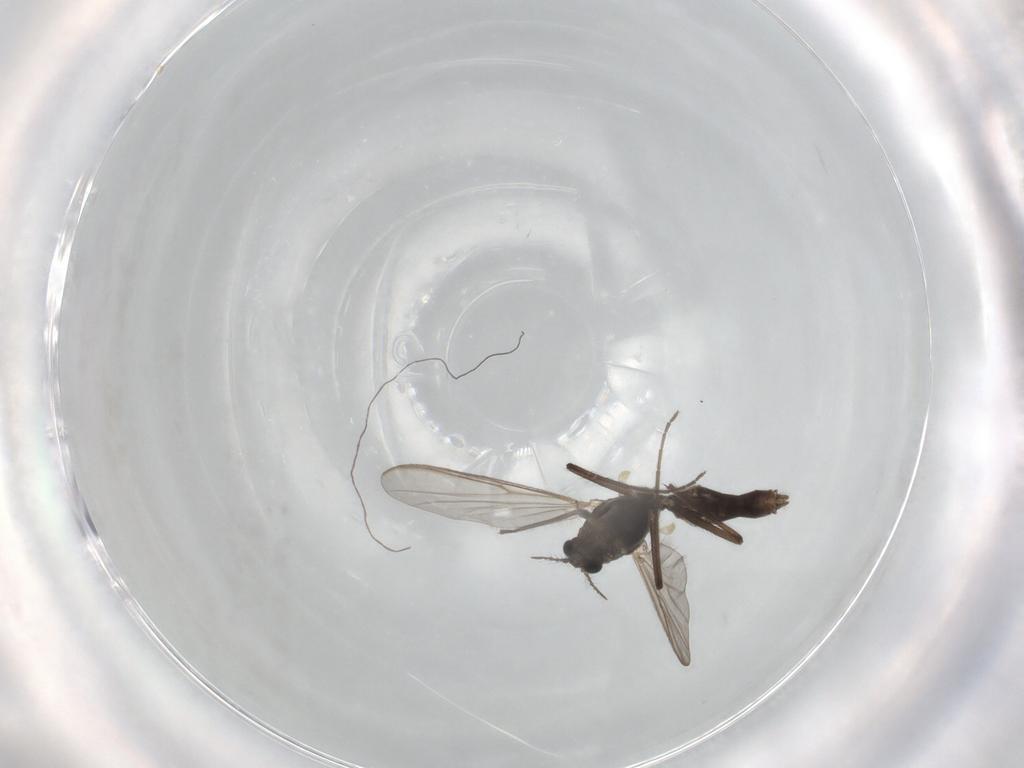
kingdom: Animalia
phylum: Arthropoda
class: Insecta
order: Diptera
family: Chironomidae
